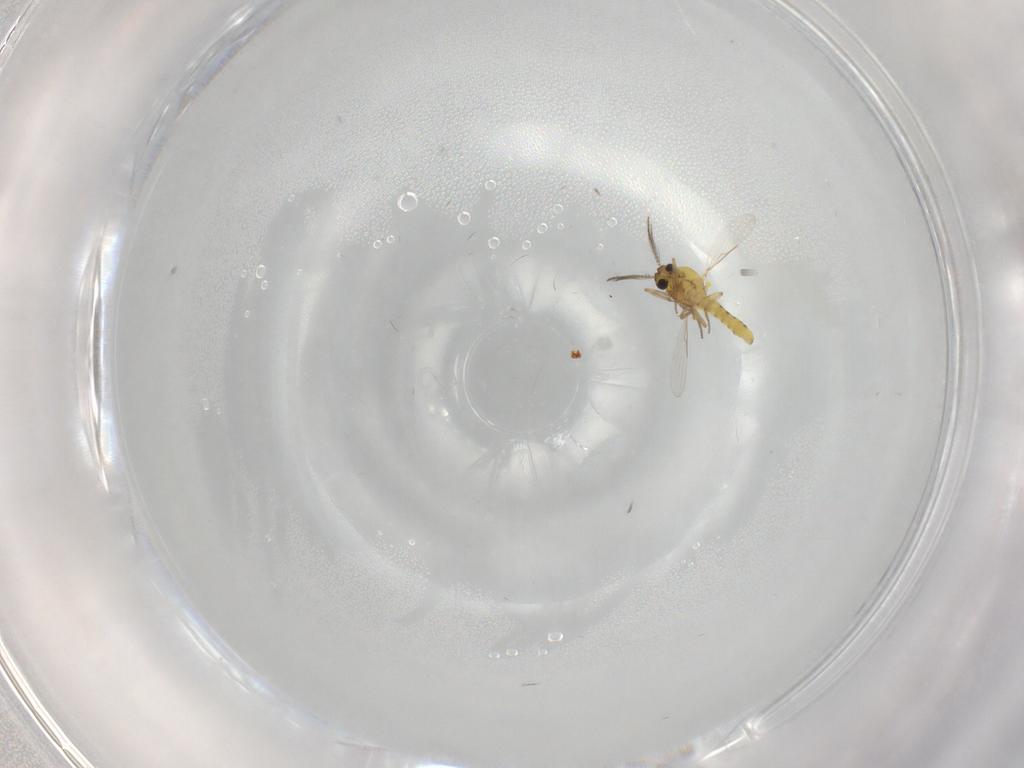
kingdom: Animalia
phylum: Arthropoda
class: Insecta
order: Diptera
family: Ceratopogonidae
